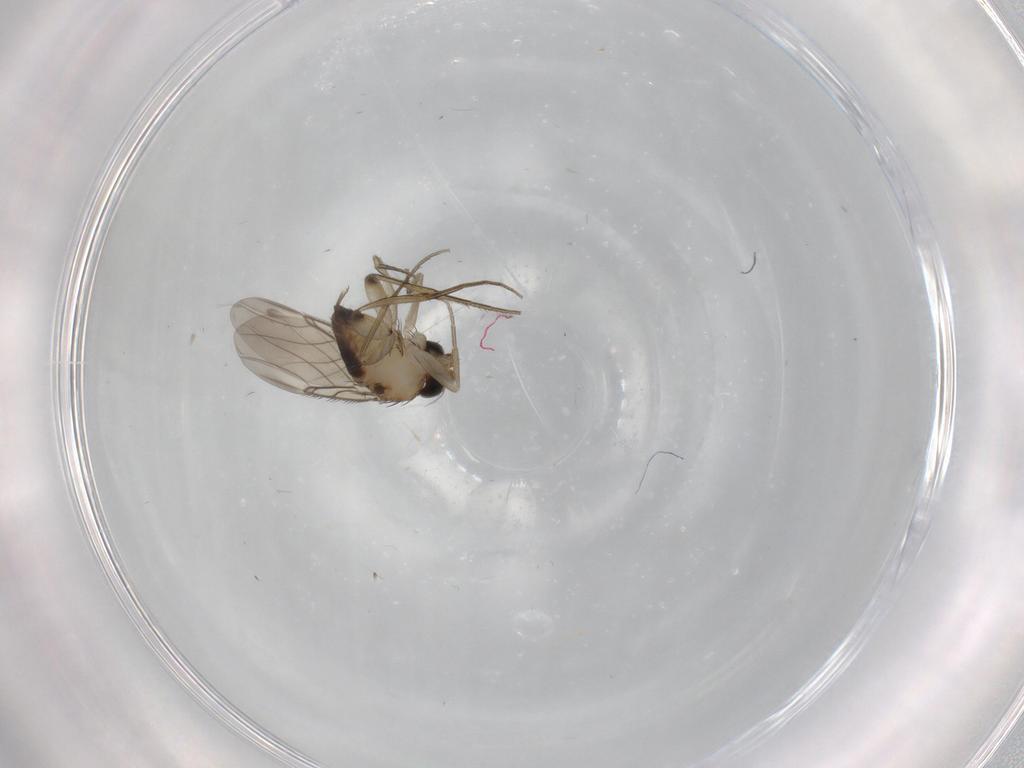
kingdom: Animalia
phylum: Arthropoda
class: Insecta
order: Diptera
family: Phoridae
